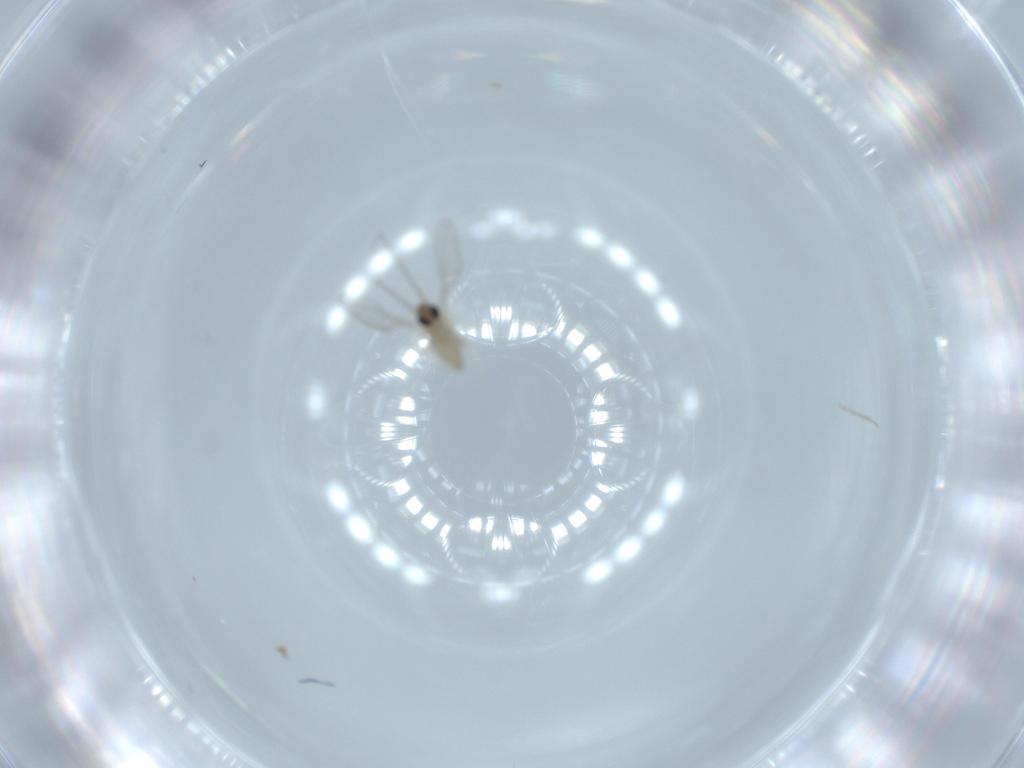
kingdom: Animalia
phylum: Arthropoda
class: Insecta
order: Diptera
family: Cecidomyiidae
